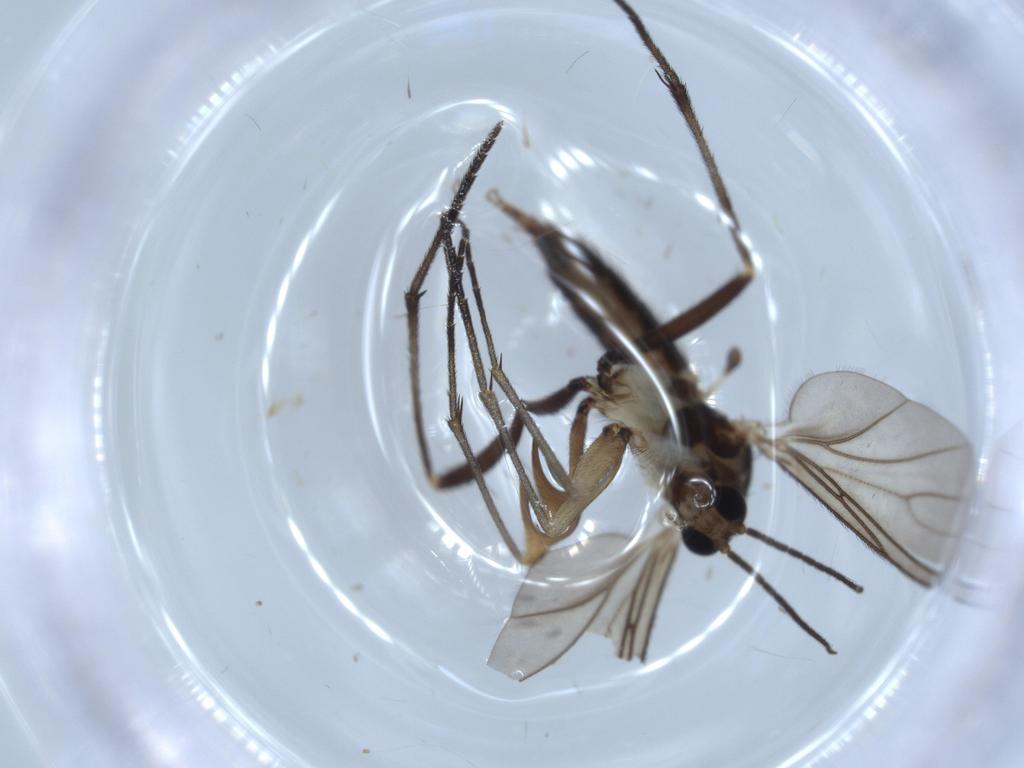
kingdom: Animalia
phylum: Arthropoda
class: Insecta
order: Diptera
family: Sciaridae
